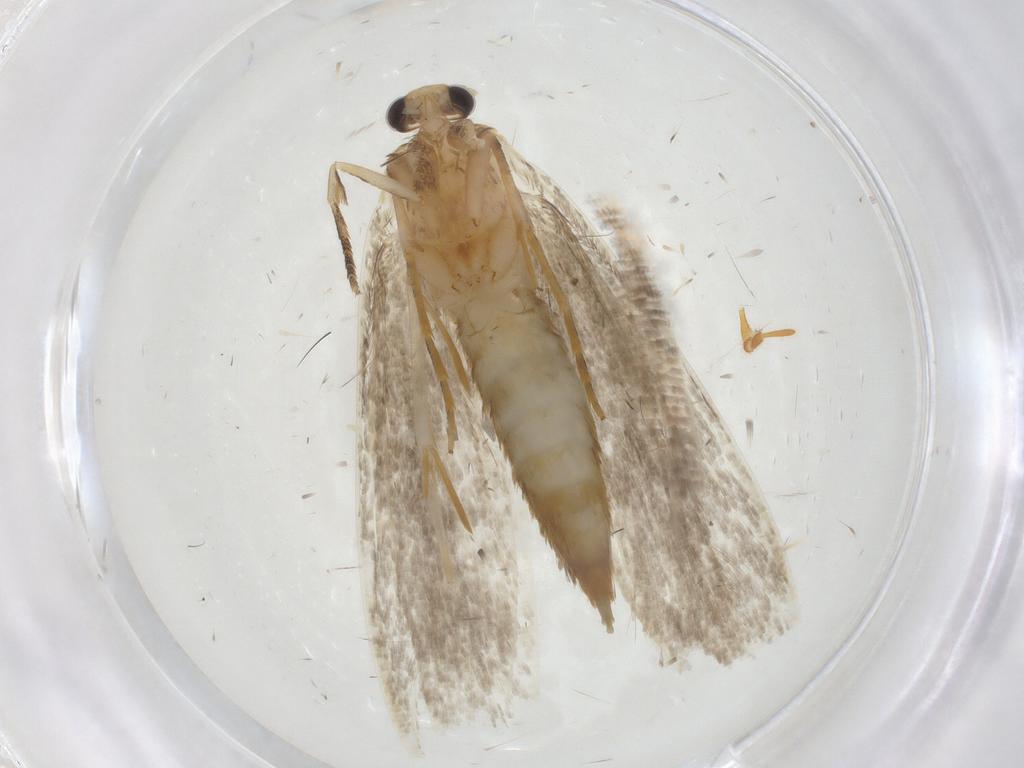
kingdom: Animalia
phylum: Arthropoda
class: Insecta
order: Lepidoptera
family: Tineidae
